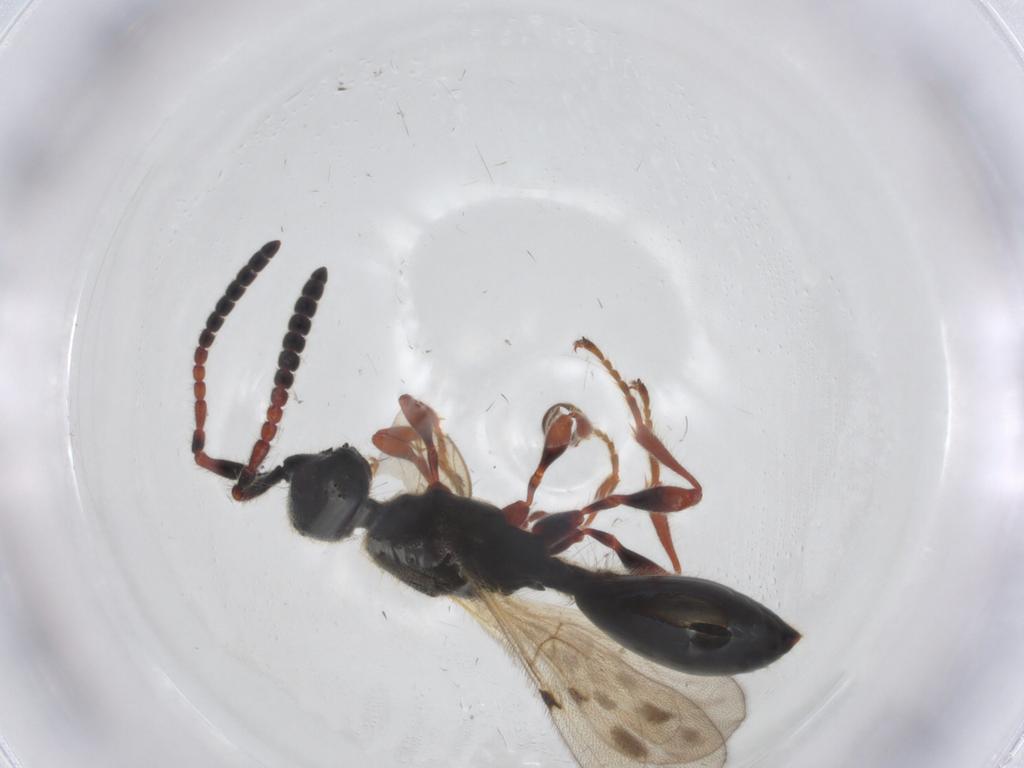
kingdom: Animalia
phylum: Arthropoda
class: Insecta
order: Hymenoptera
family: Diapriidae
